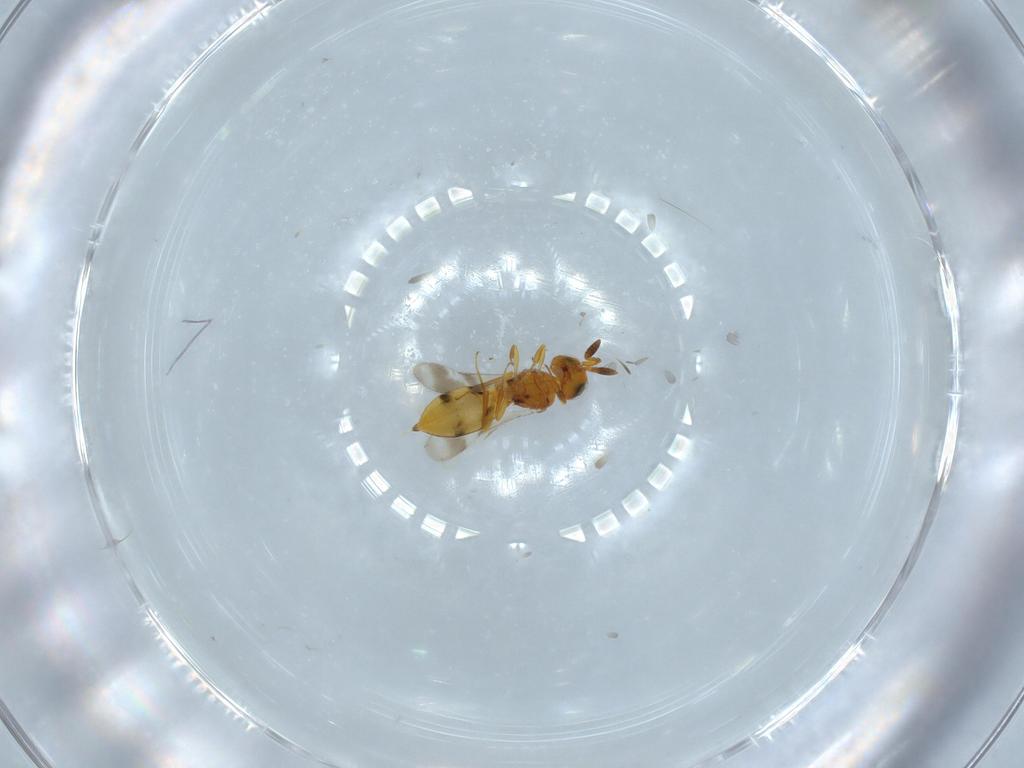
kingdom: Animalia
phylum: Arthropoda
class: Insecta
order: Hymenoptera
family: Scelionidae
